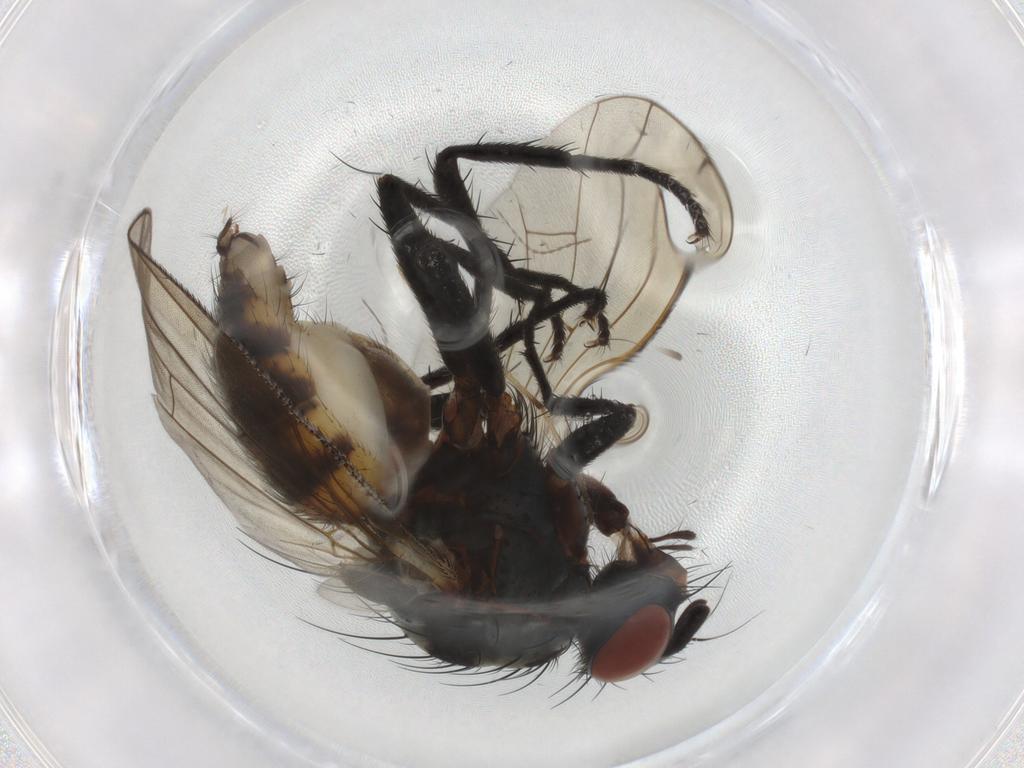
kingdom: Animalia
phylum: Arthropoda
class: Insecta
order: Diptera
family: Anthomyiidae
